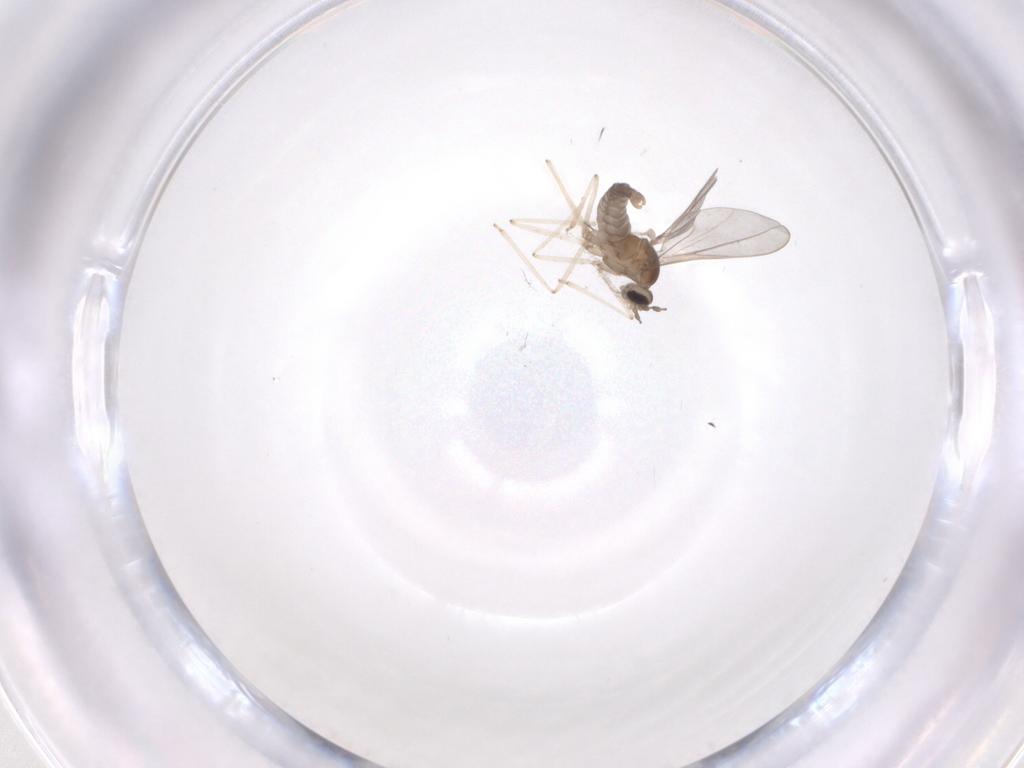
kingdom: Animalia
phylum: Arthropoda
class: Insecta
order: Diptera
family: Cecidomyiidae
